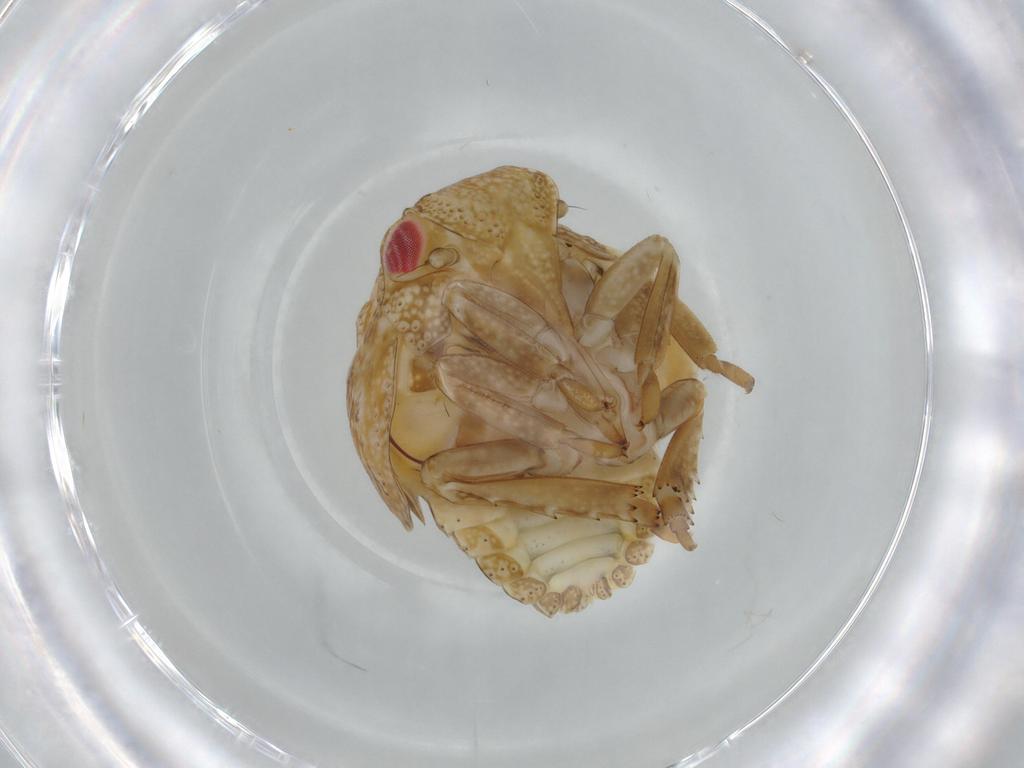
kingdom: Animalia
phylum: Arthropoda
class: Insecta
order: Hemiptera
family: Acanaloniidae
